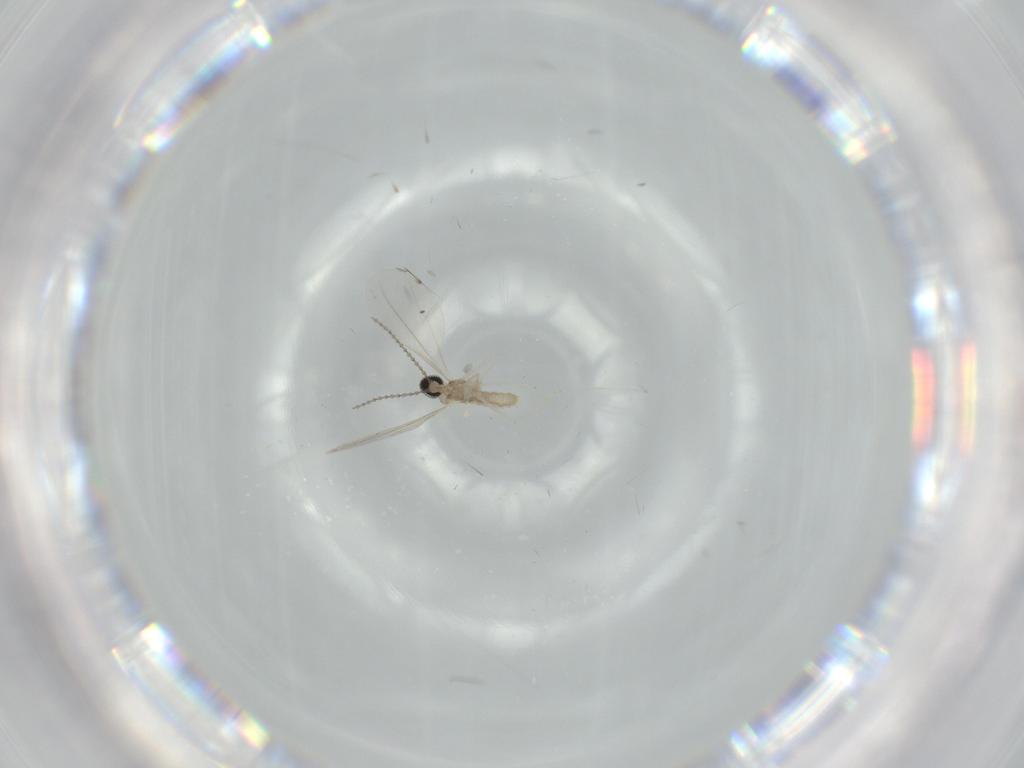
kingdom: Animalia
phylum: Arthropoda
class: Insecta
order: Diptera
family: Cecidomyiidae
